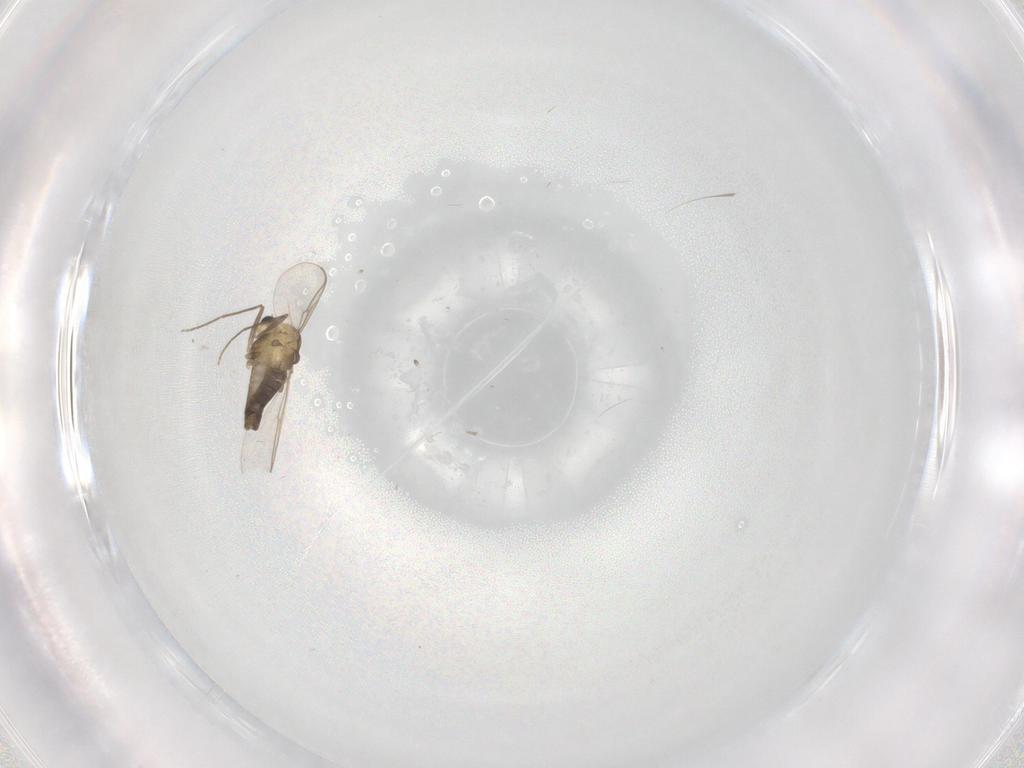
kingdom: Animalia
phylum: Arthropoda
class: Insecta
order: Diptera
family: Chironomidae
